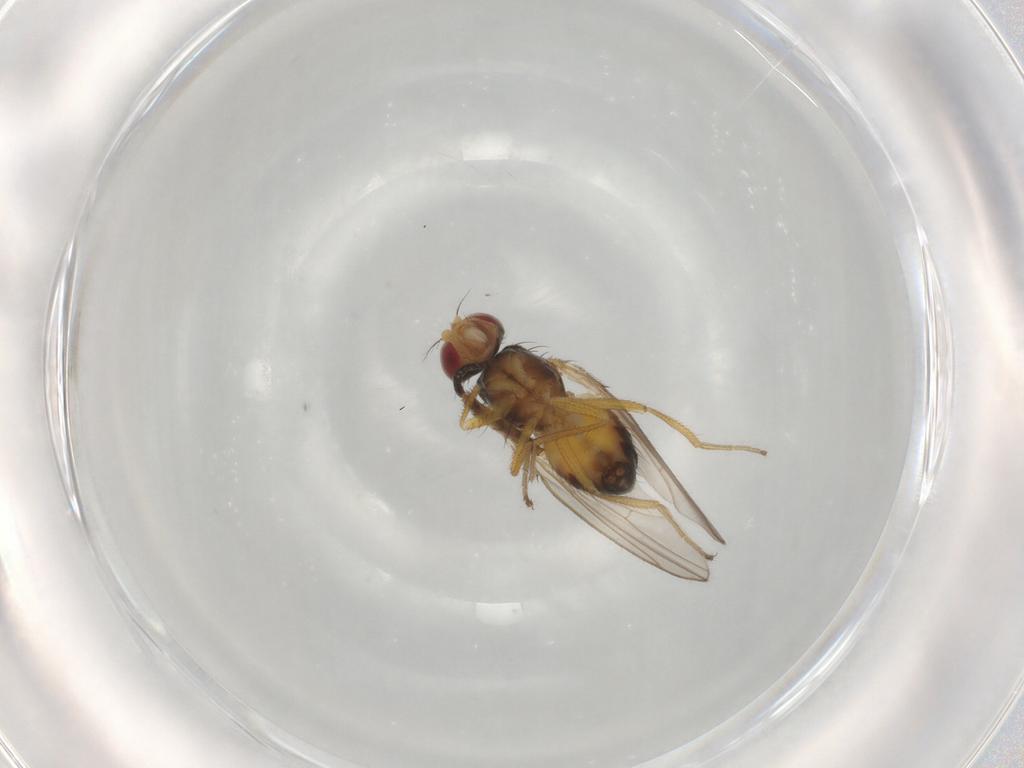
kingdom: Animalia
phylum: Arthropoda
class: Insecta
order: Diptera
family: Drosophilidae
